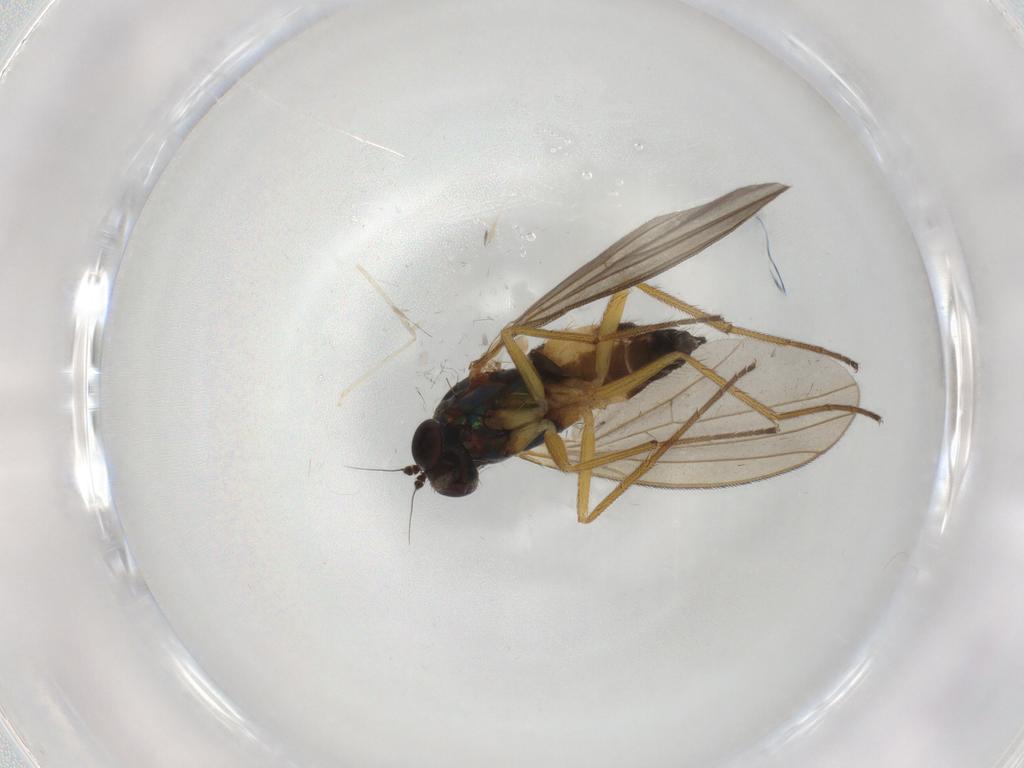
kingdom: Animalia
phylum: Arthropoda
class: Insecta
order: Diptera
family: Dolichopodidae
